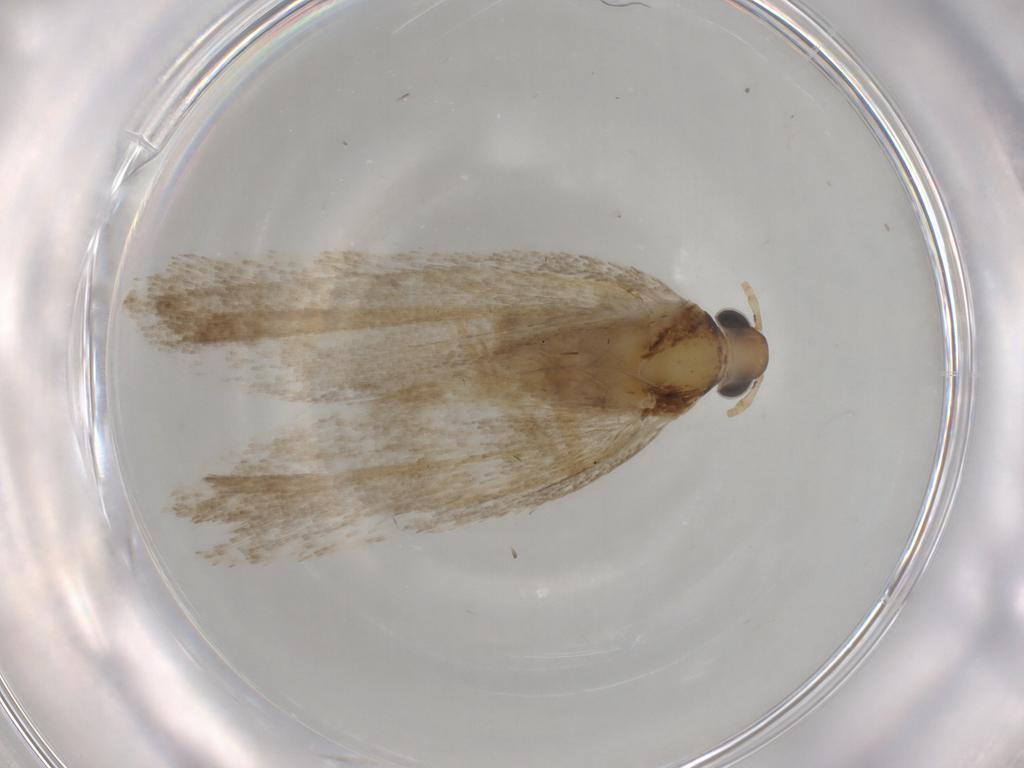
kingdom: Animalia
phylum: Arthropoda
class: Insecta
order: Lepidoptera
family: Lecithoceridae
